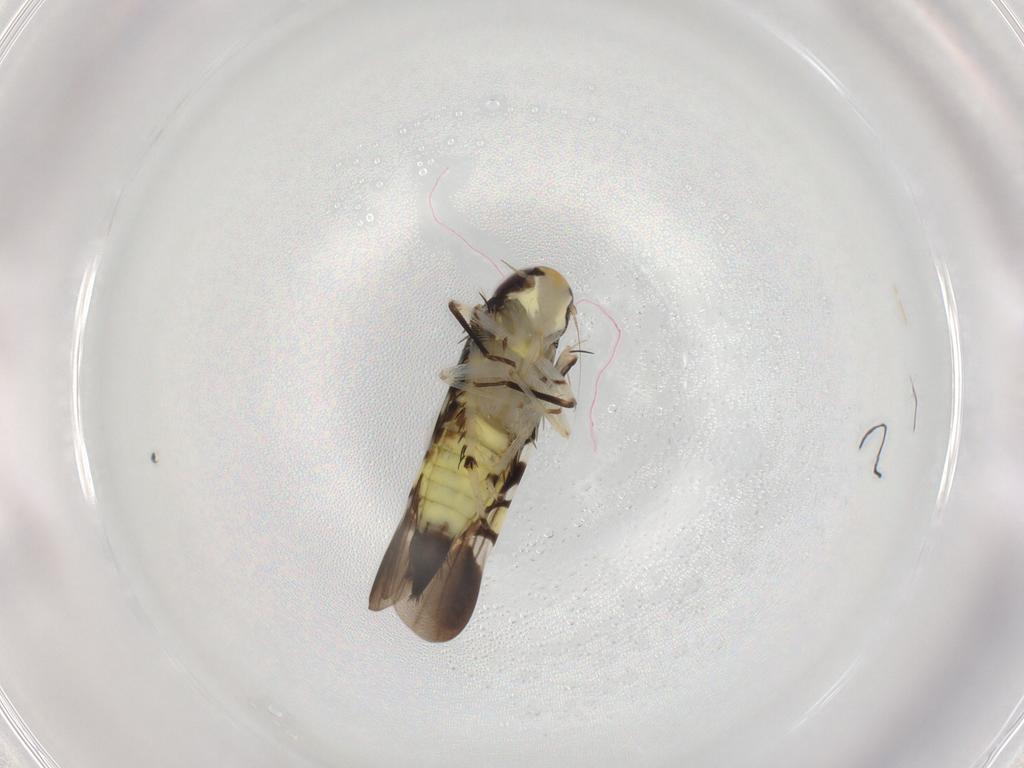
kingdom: Animalia
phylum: Arthropoda
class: Insecta
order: Hemiptera
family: Cicadellidae
